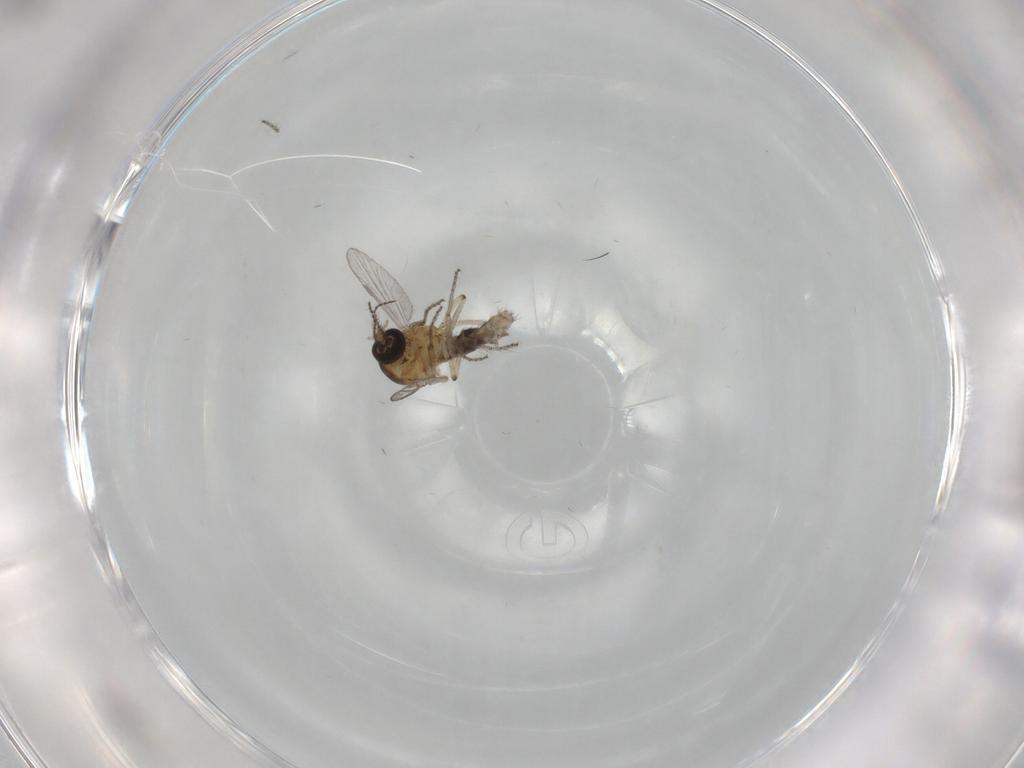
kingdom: Animalia
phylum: Arthropoda
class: Insecta
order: Diptera
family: Ceratopogonidae
